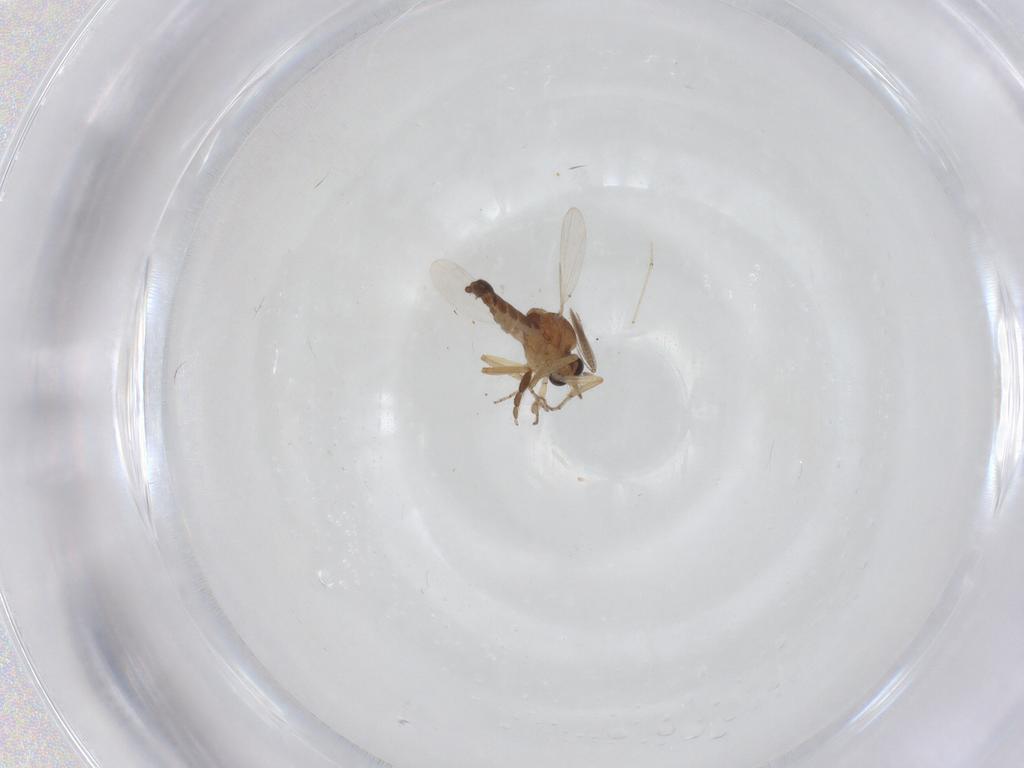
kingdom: Animalia
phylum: Arthropoda
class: Insecta
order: Diptera
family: Ceratopogonidae
